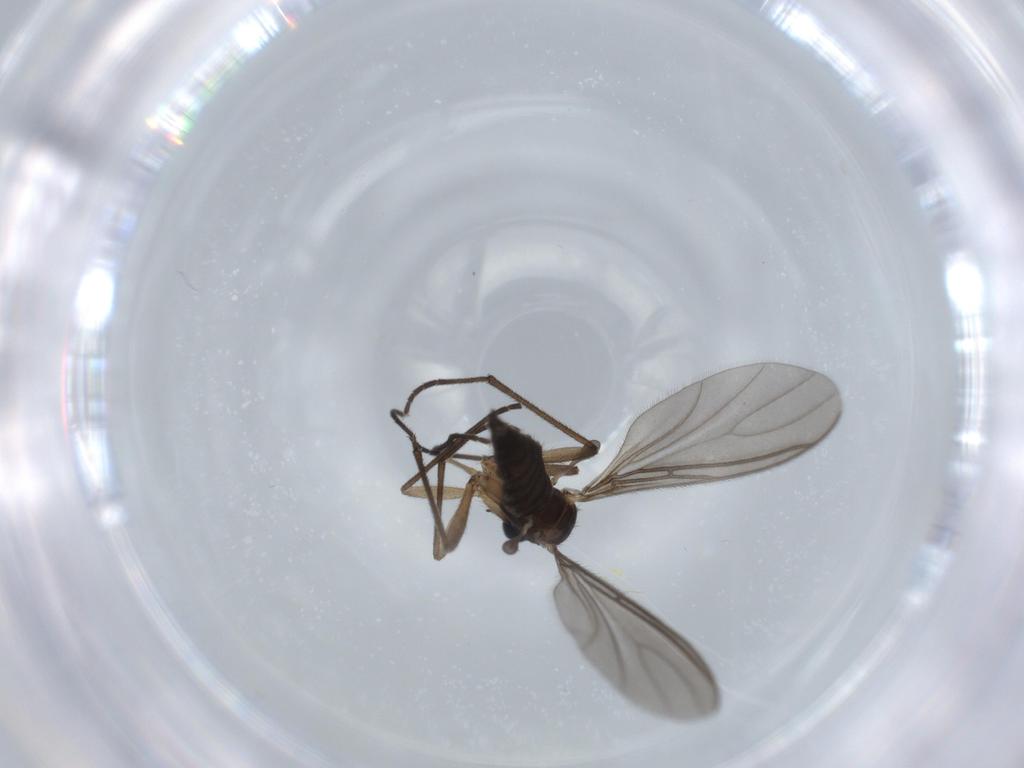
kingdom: Animalia
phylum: Arthropoda
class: Insecta
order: Diptera
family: Sciaridae
